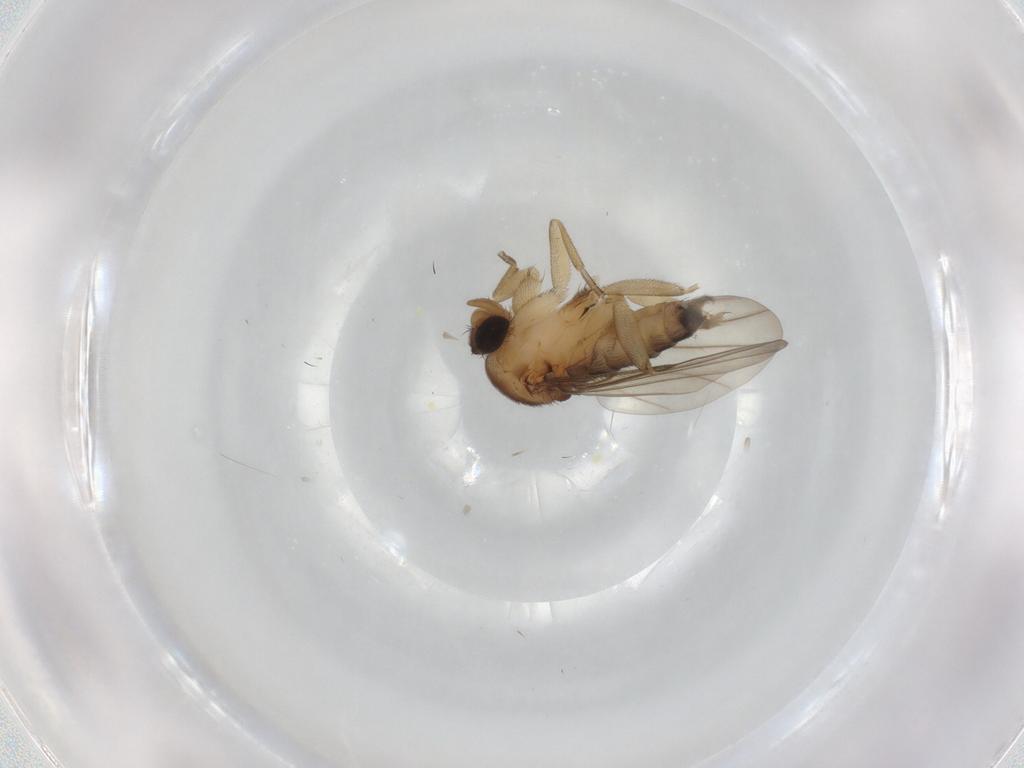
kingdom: Animalia
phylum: Arthropoda
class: Insecta
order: Diptera
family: Phoridae
